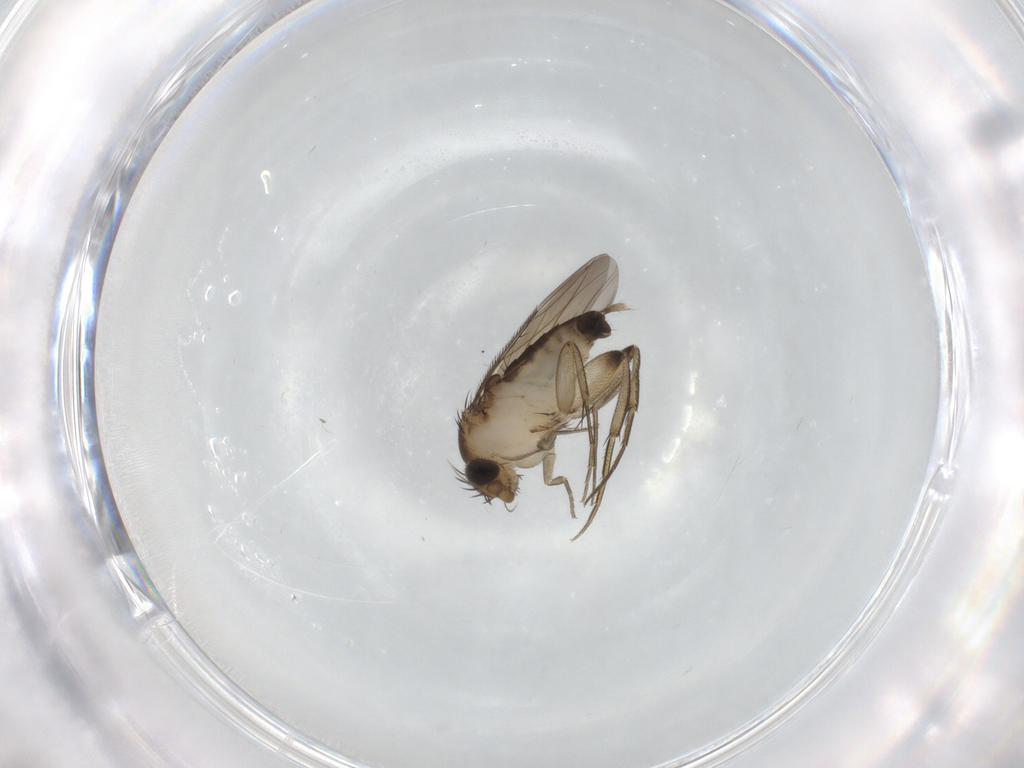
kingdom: Animalia
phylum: Arthropoda
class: Insecta
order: Diptera
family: Phoridae
